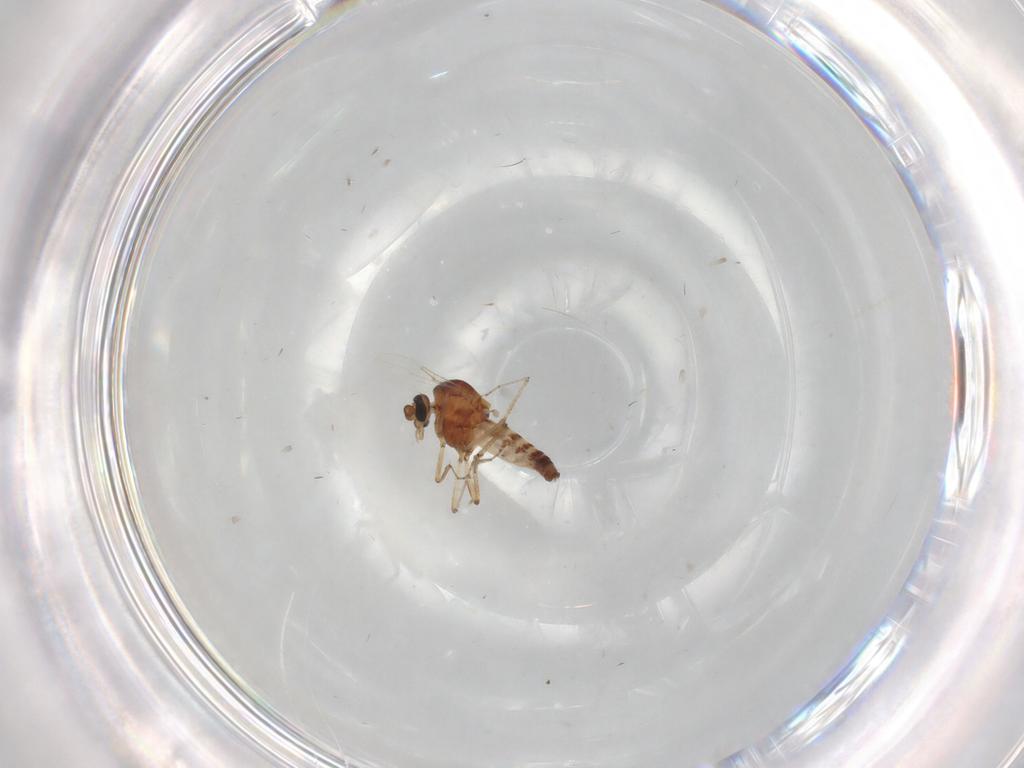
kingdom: Animalia
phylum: Arthropoda
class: Insecta
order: Diptera
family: Ceratopogonidae
